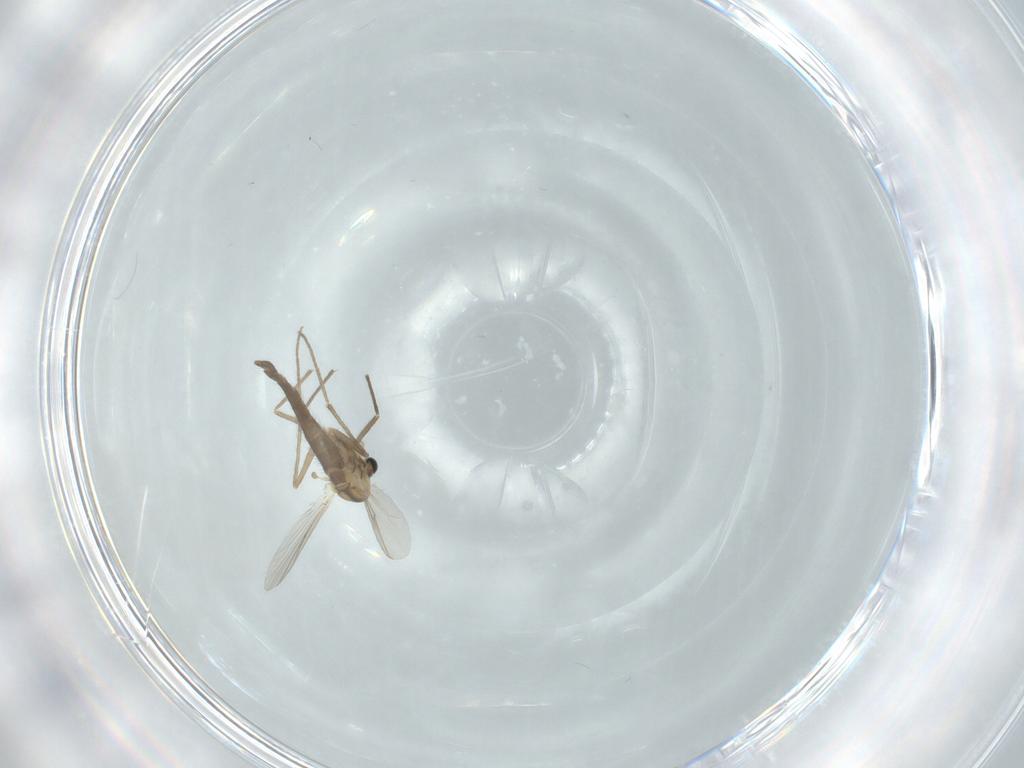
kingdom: Animalia
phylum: Arthropoda
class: Insecta
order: Diptera
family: Chironomidae
